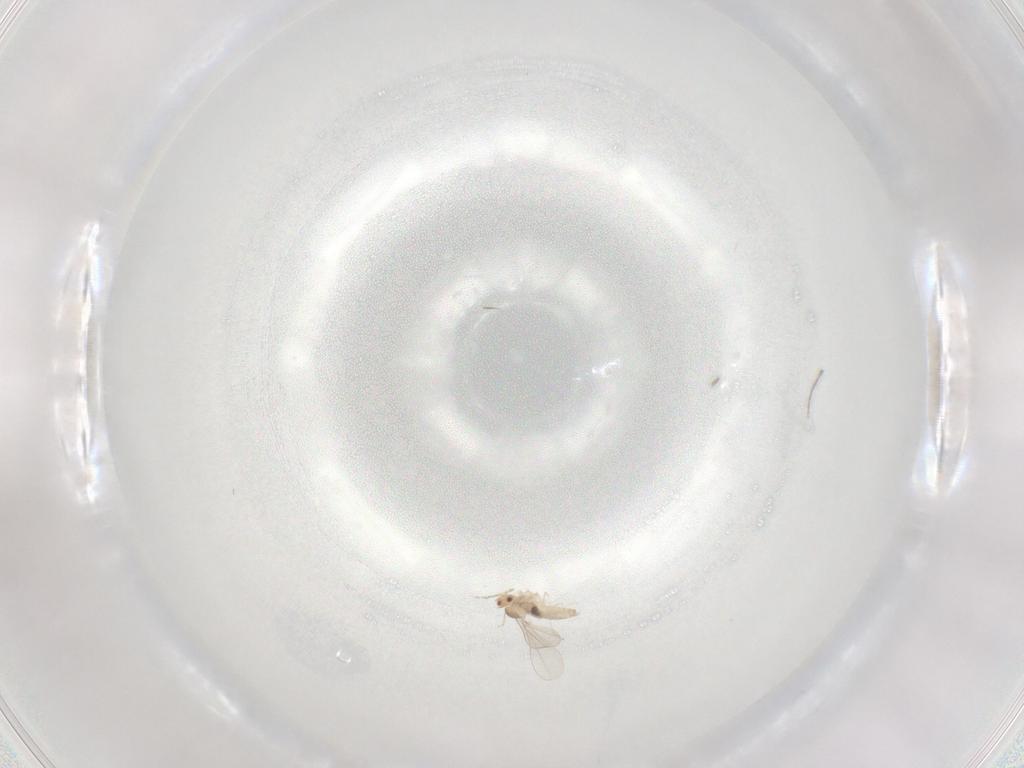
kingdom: Animalia
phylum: Arthropoda
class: Insecta
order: Diptera
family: Cecidomyiidae
